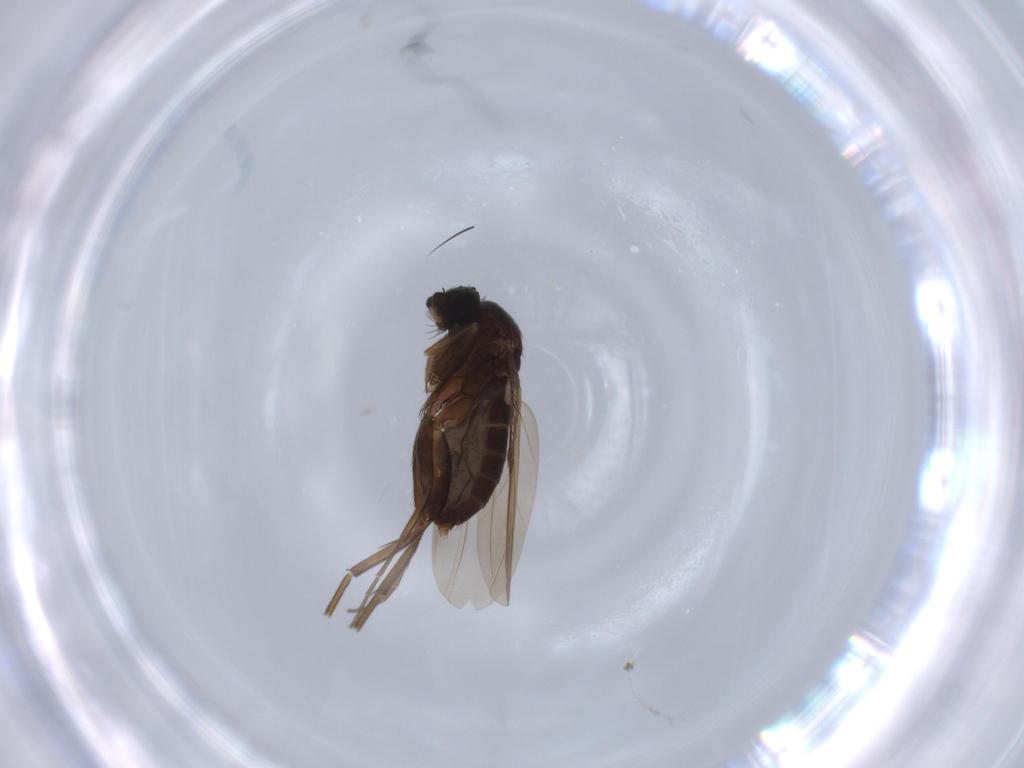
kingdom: Animalia
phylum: Arthropoda
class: Insecta
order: Diptera
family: Phoridae
